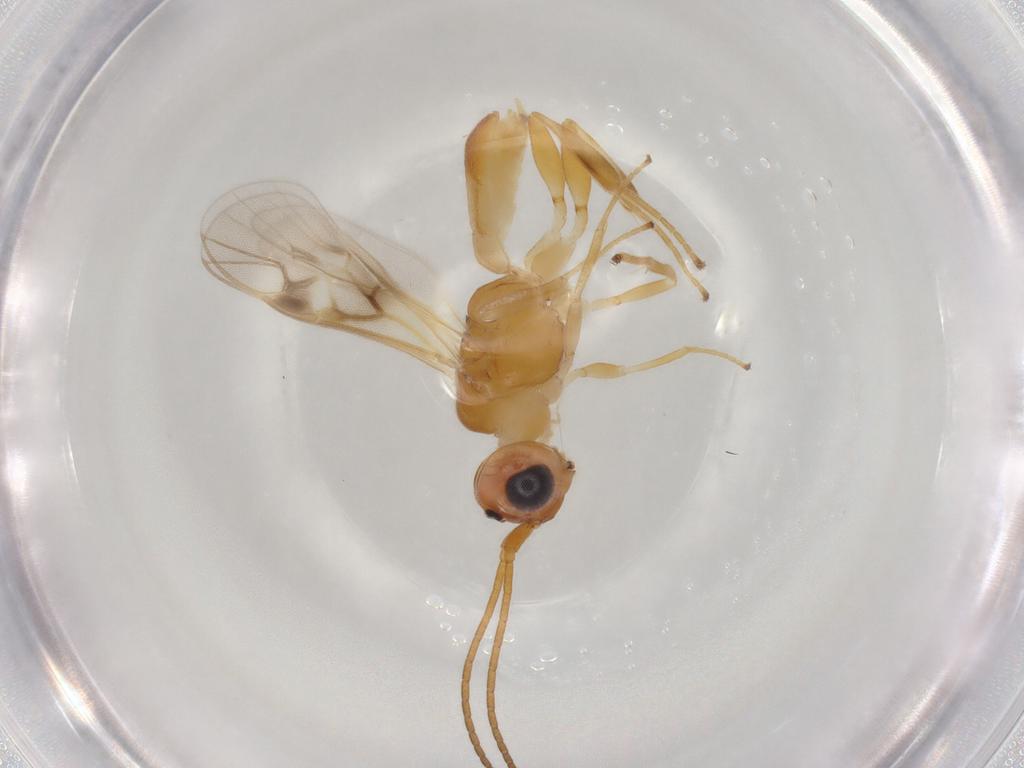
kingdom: Animalia
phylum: Arthropoda
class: Insecta
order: Hymenoptera
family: Braconidae
